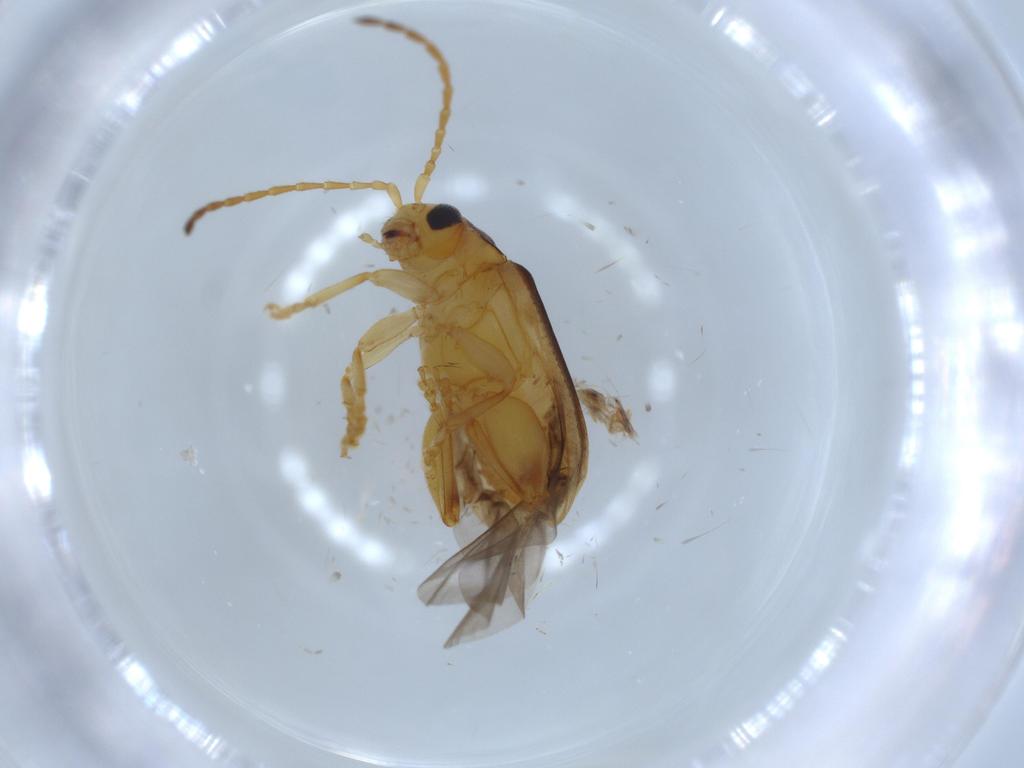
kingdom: Animalia
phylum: Arthropoda
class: Insecta
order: Coleoptera
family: Chrysomelidae
